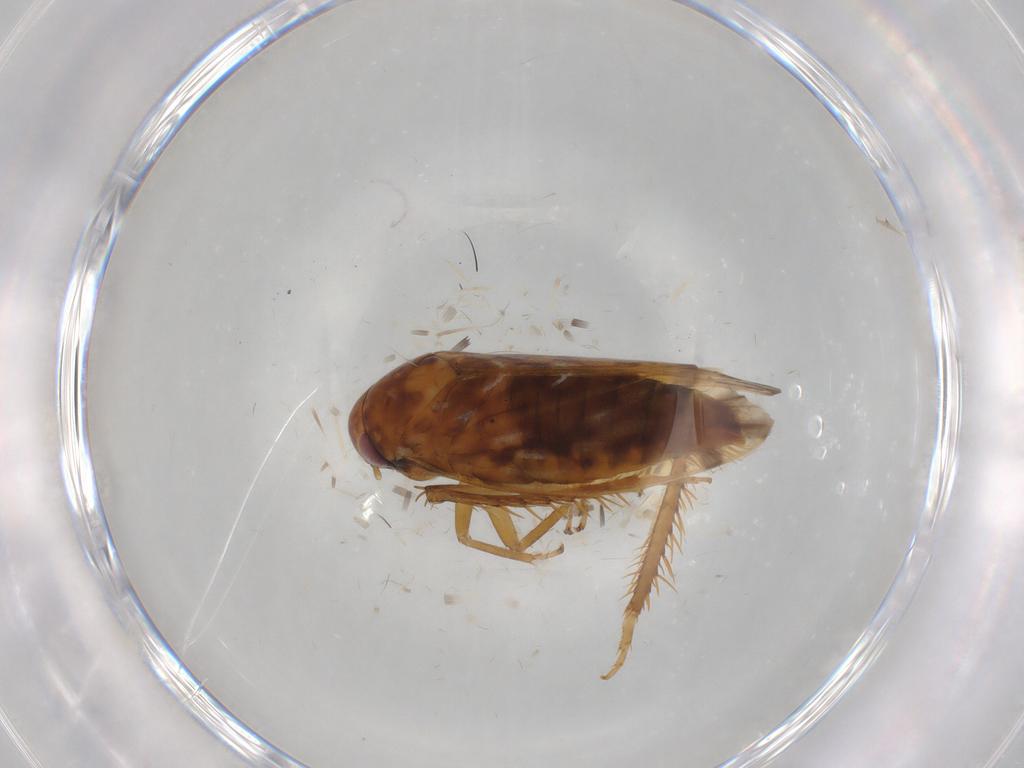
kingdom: Animalia
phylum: Arthropoda
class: Insecta
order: Hemiptera
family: Cicadellidae
